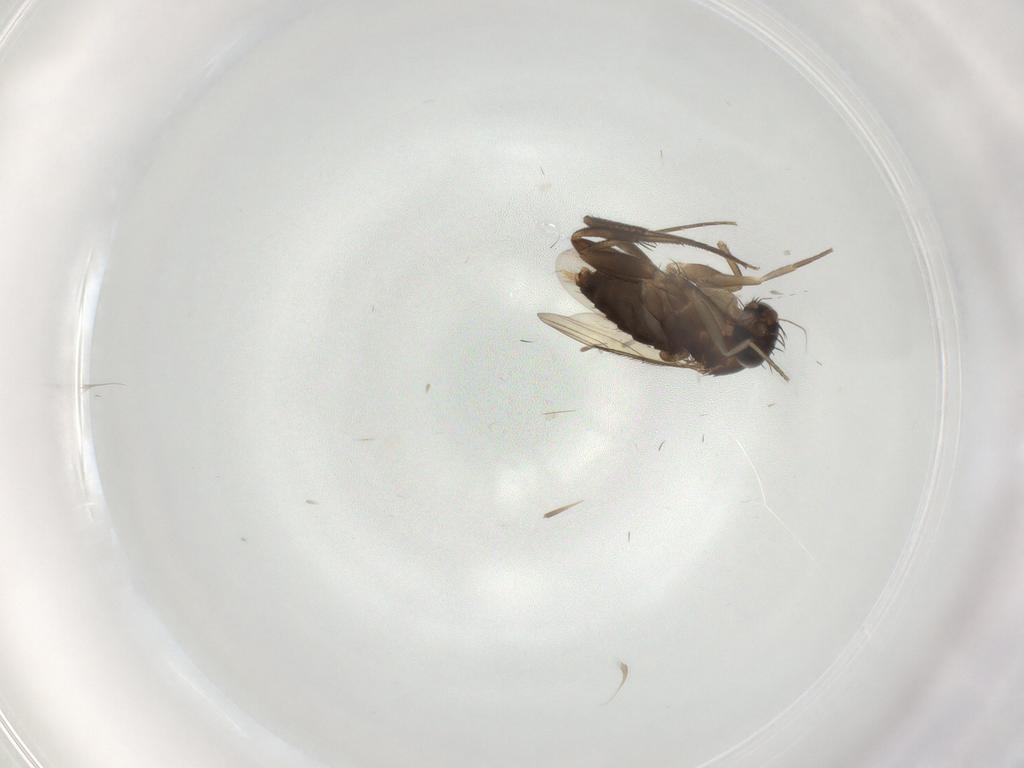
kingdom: Animalia
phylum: Arthropoda
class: Insecta
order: Diptera
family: Phoridae
